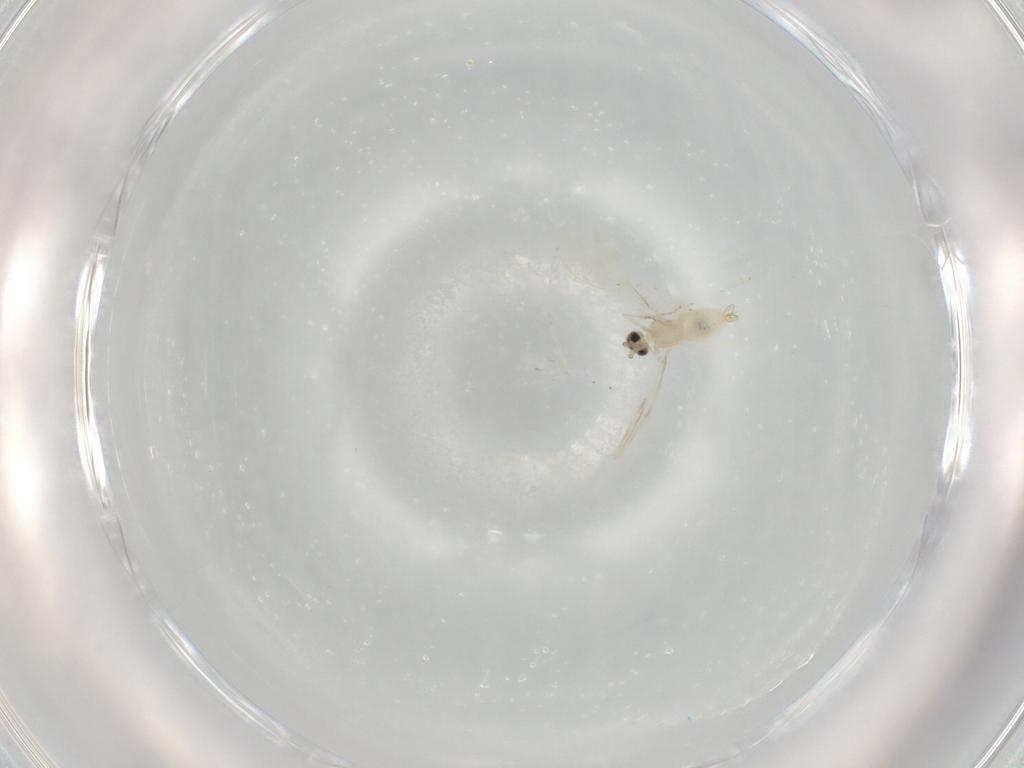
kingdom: Animalia
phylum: Arthropoda
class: Insecta
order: Diptera
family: Cecidomyiidae
